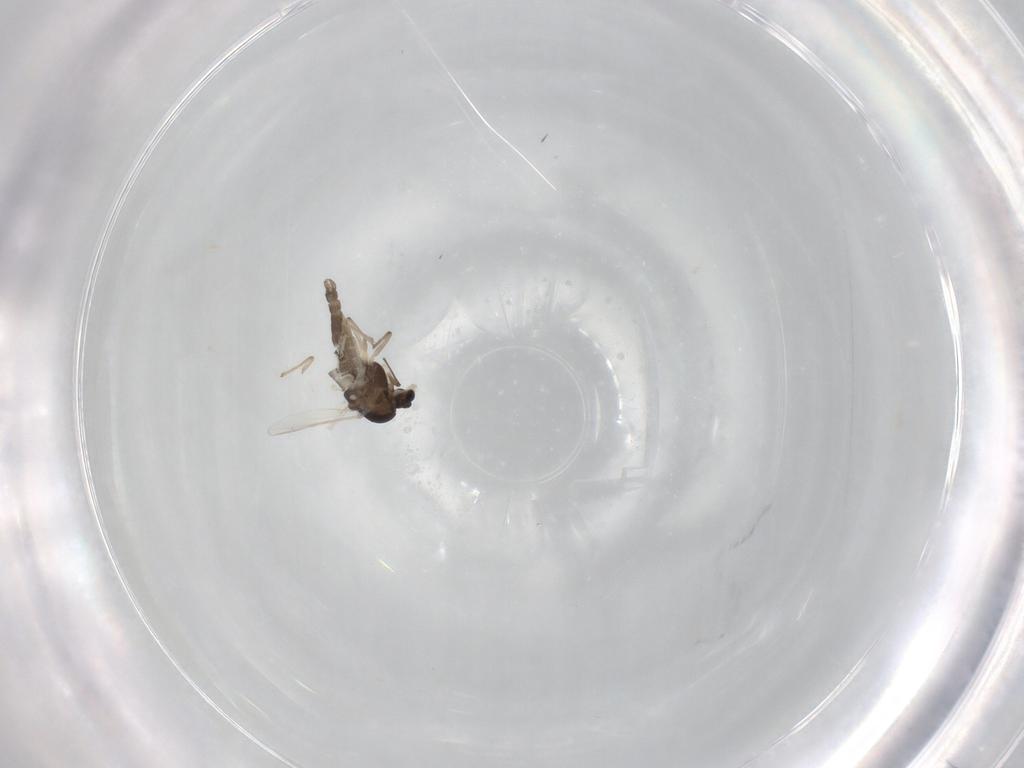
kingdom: Animalia
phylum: Arthropoda
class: Insecta
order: Diptera
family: Chironomidae
